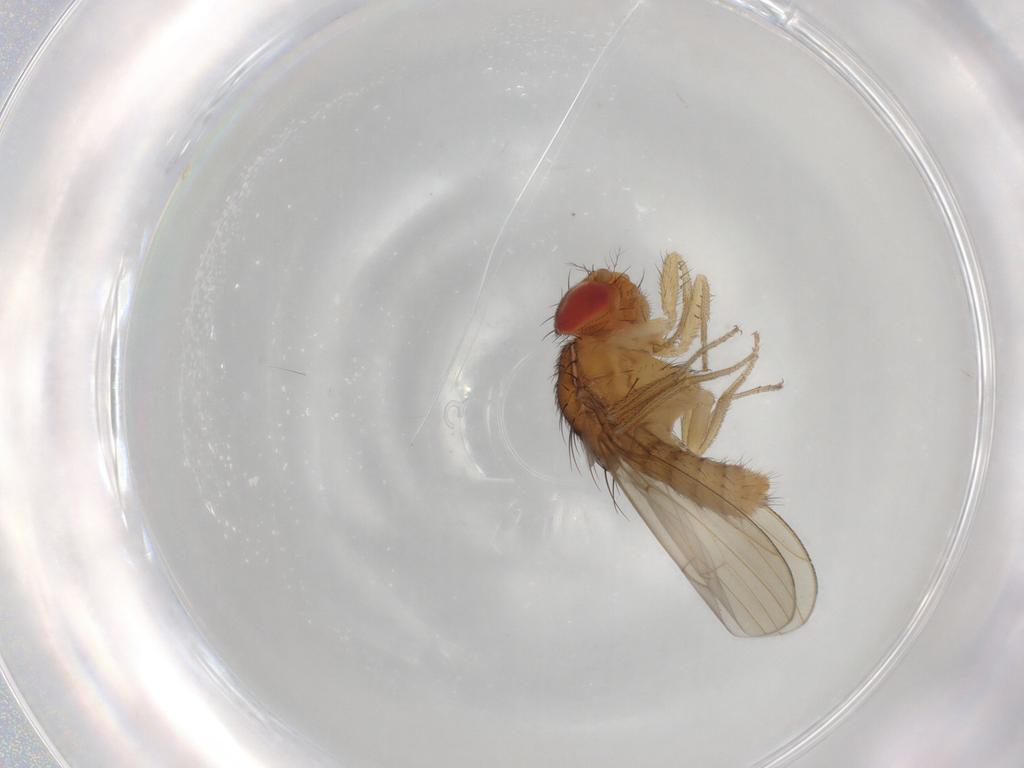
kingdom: Animalia
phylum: Arthropoda
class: Insecta
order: Diptera
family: Drosophilidae
